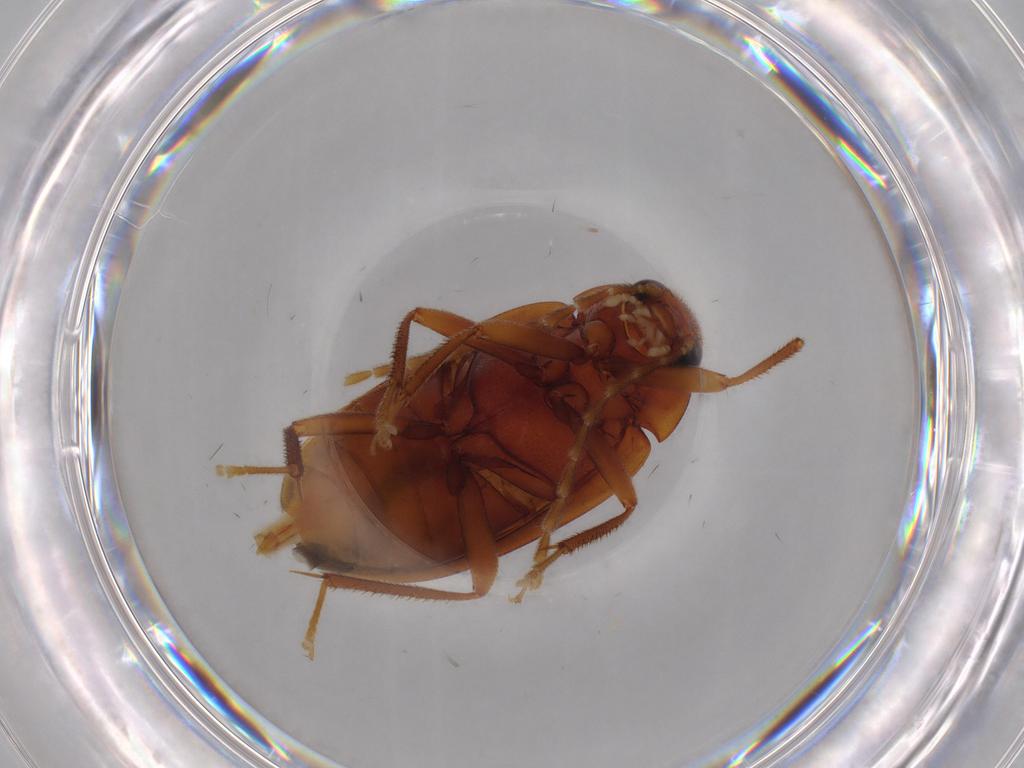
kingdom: Animalia
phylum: Arthropoda
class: Insecta
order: Coleoptera
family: Ptilodactylidae
